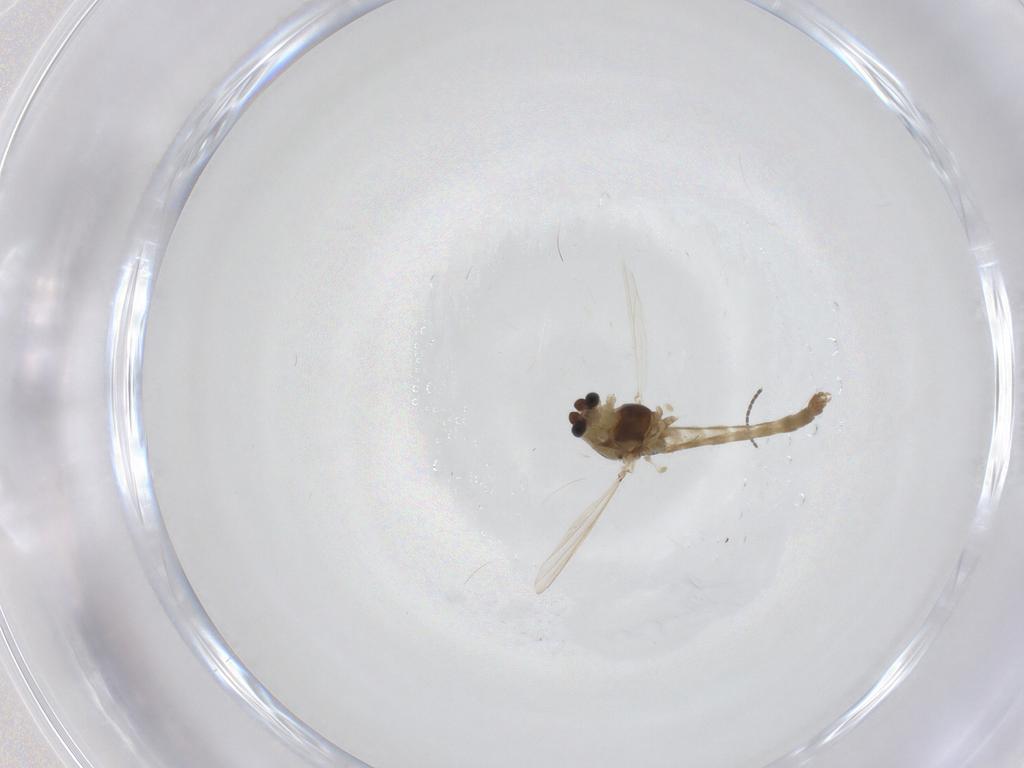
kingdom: Animalia
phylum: Arthropoda
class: Insecta
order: Diptera
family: Chironomidae
